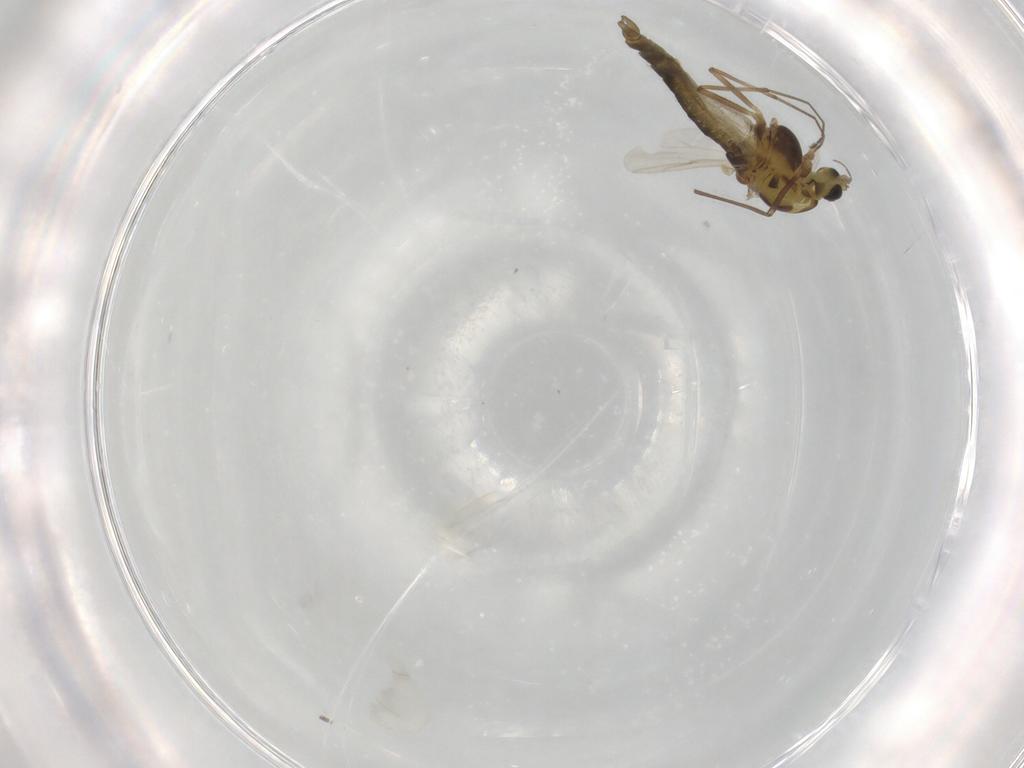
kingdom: Animalia
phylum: Arthropoda
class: Insecta
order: Diptera
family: Chironomidae
